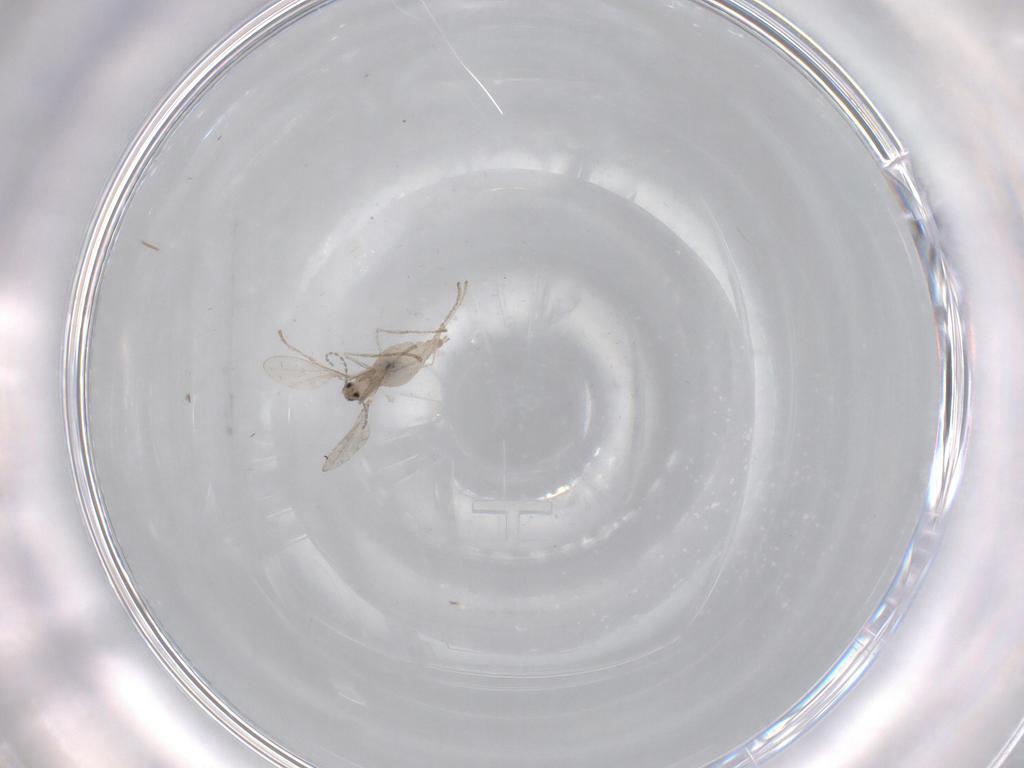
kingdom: Animalia
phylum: Arthropoda
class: Insecta
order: Diptera
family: Cecidomyiidae
